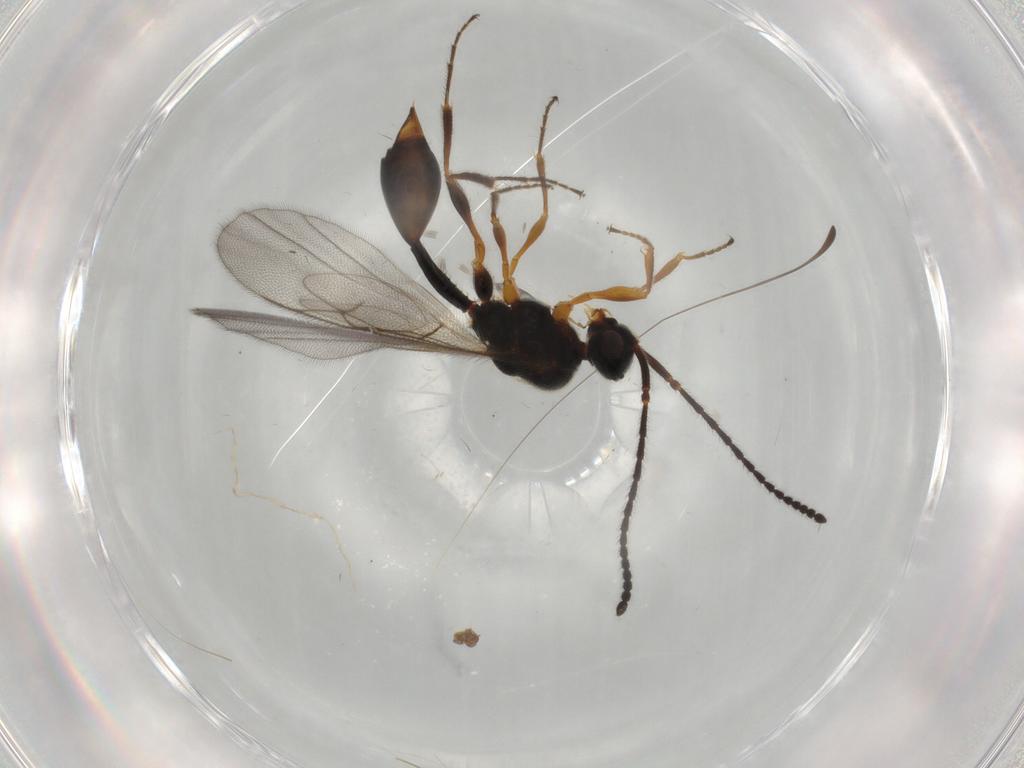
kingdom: Animalia
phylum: Arthropoda
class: Insecta
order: Hymenoptera
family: Diapriidae
